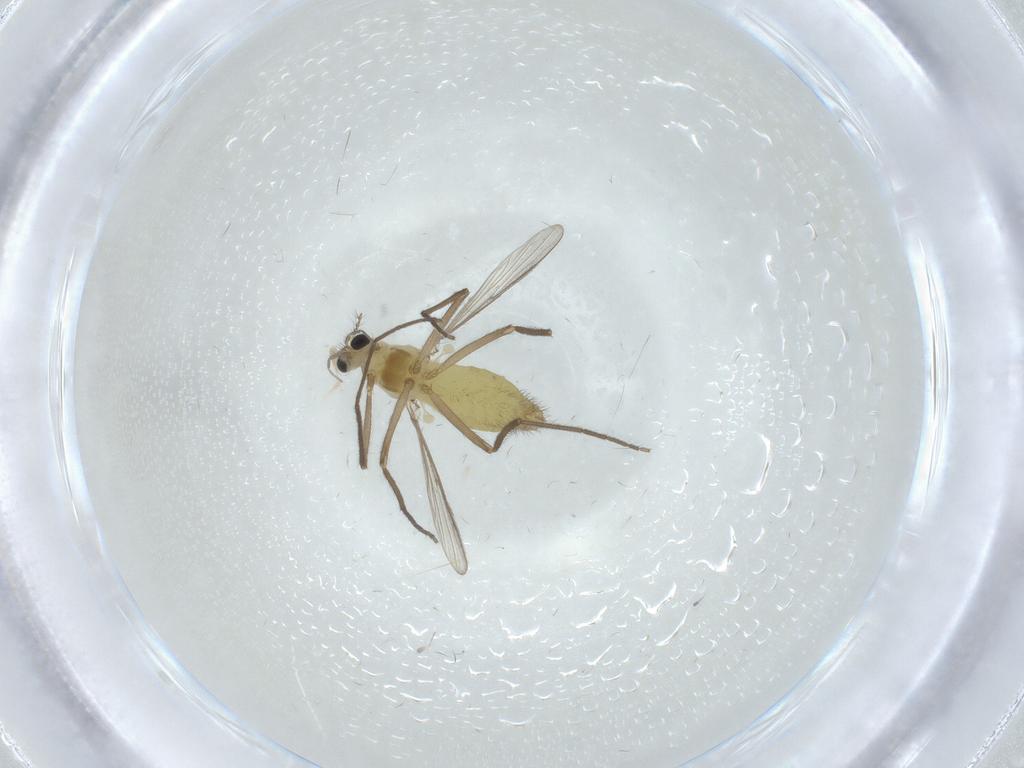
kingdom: Animalia
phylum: Arthropoda
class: Insecta
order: Diptera
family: Chironomidae
